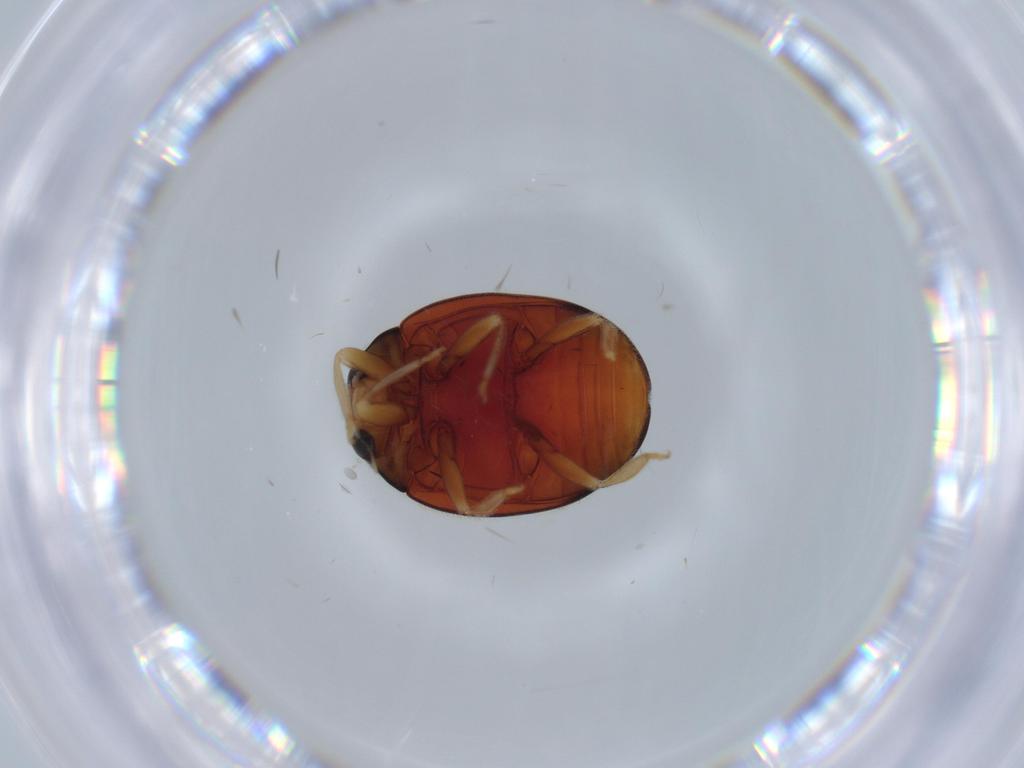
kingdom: Animalia
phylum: Arthropoda
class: Insecta
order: Coleoptera
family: Coccinellidae
